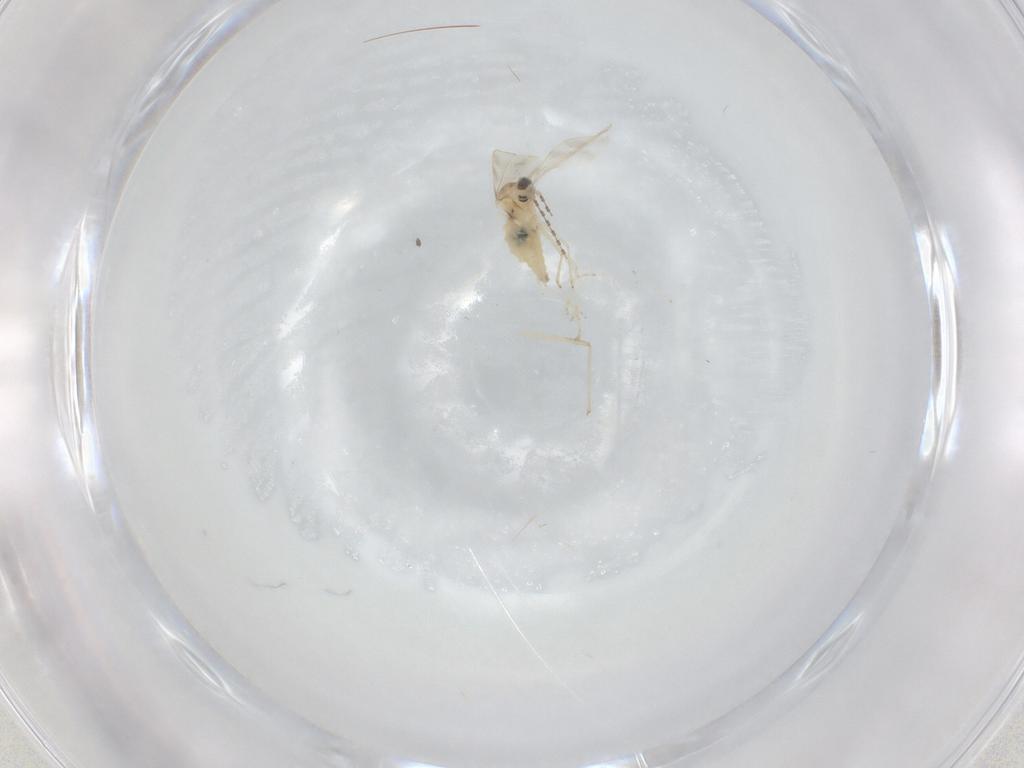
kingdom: Animalia
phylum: Arthropoda
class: Insecta
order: Diptera
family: Cecidomyiidae
